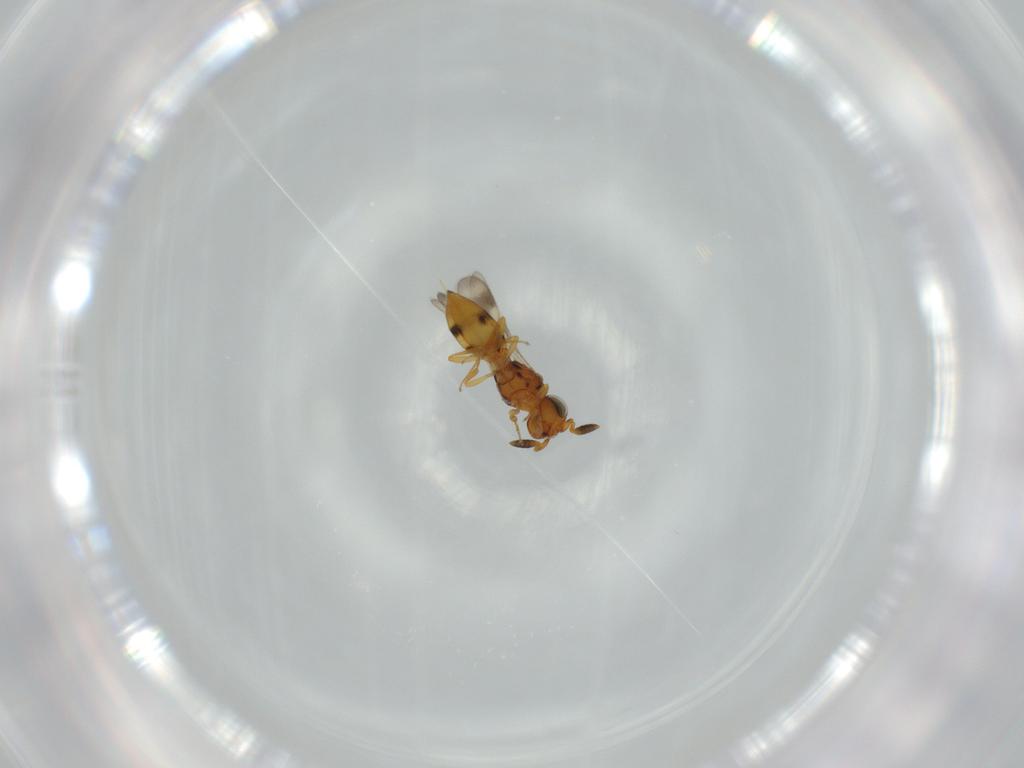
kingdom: Animalia
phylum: Arthropoda
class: Insecta
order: Hymenoptera
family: Scelionidae
